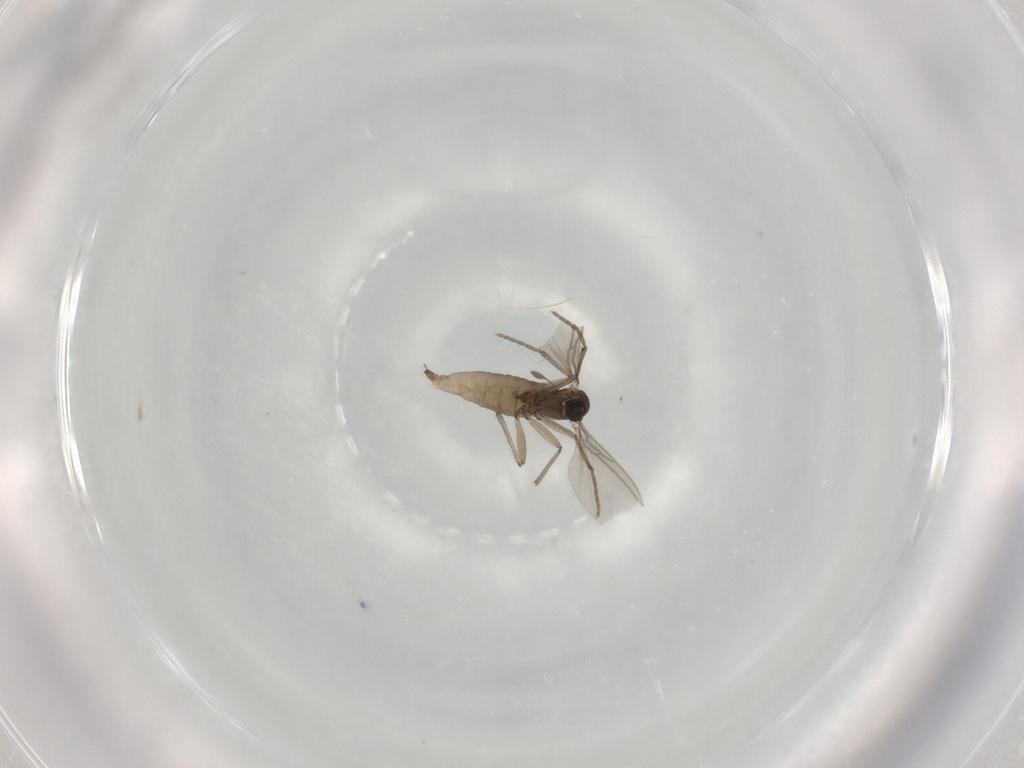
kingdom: Animalia
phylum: Arthropoda
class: Insecta
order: Diptera
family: Sciaridae
